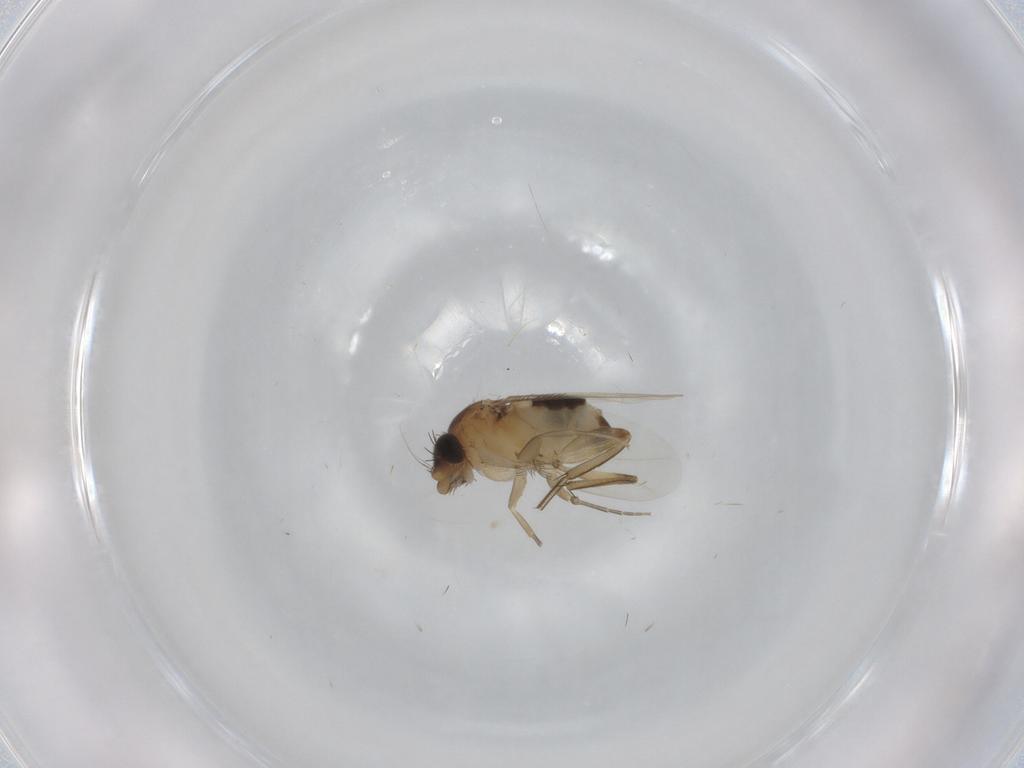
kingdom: Animalia
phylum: Arthropoda
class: Insecta
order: Diptera
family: Phoridae
